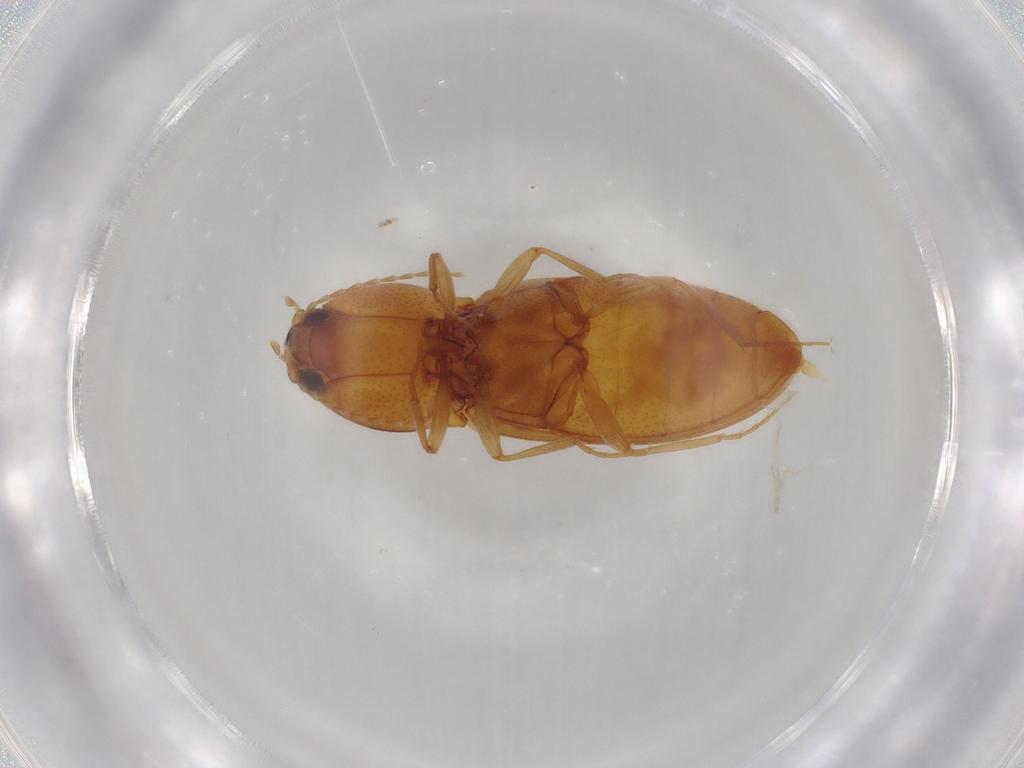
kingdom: Animalia
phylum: Arthropoda
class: Insecta
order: Coleoptera
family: Elateridae
